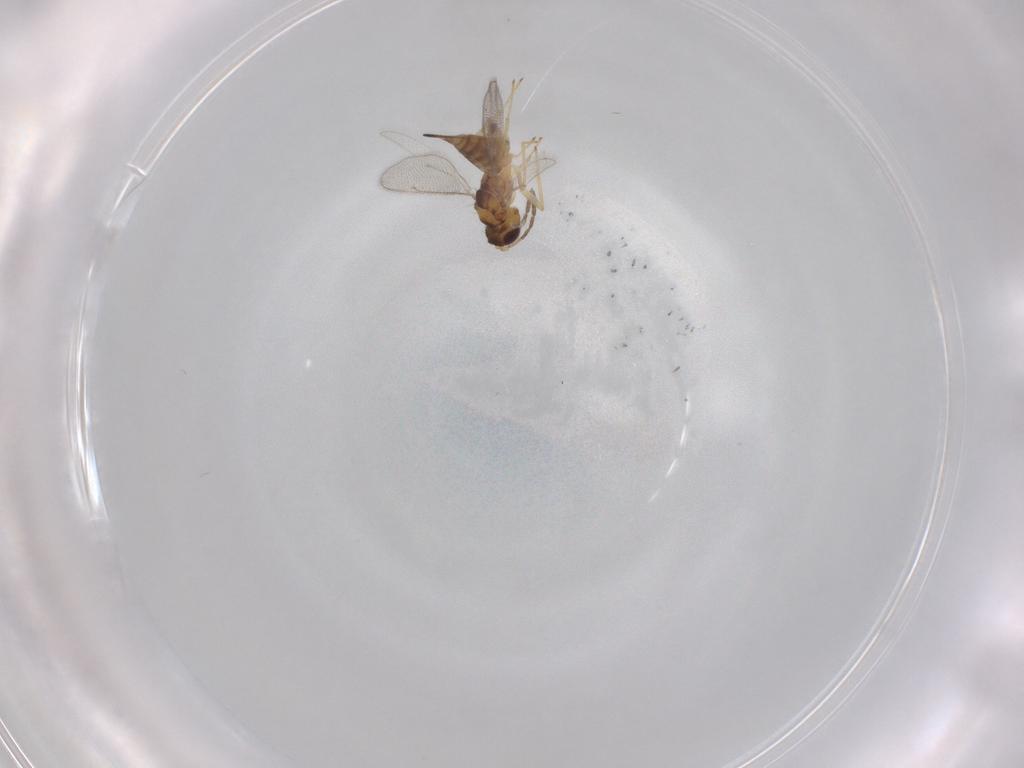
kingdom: Animalia
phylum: Arthropoda
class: Insecta
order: Hymenoptera
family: Eulophidae
